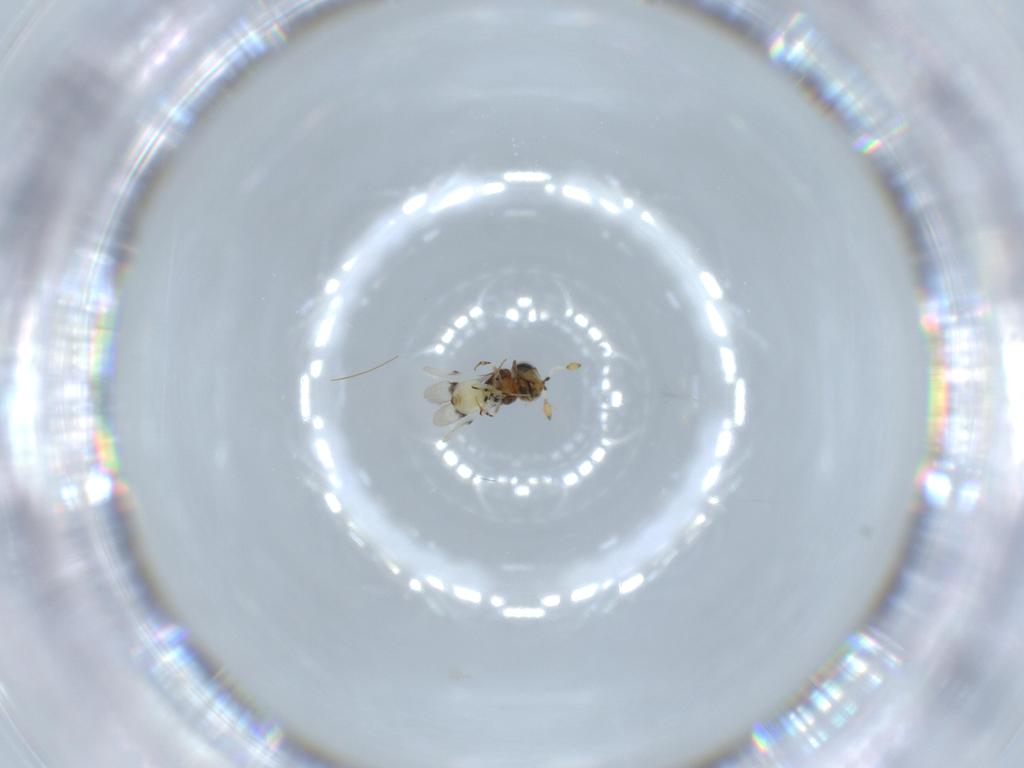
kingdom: Animalia
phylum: Arthropoda
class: Insecta
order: Hymenoptera
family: Scelionidae
